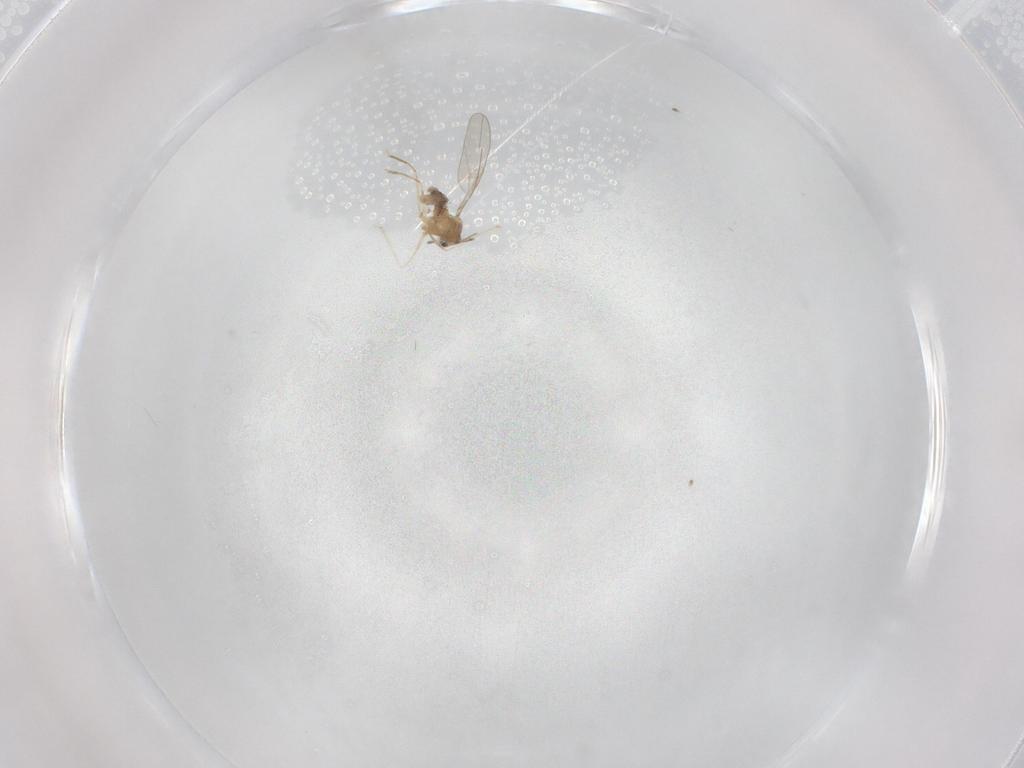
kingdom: Animalia
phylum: Arthropoda
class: Insecta
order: Diptera
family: Cecidomyiidae
